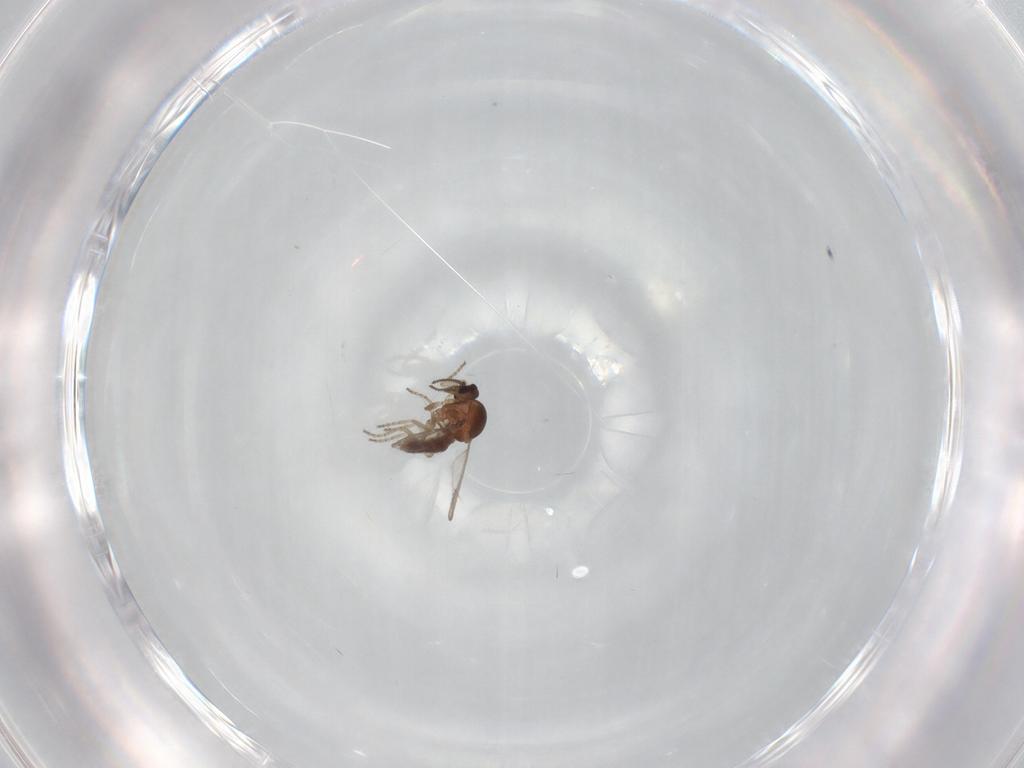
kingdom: Animalia
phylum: Arthropoda
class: Insecta
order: Diptera
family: Ceratopogonidae
